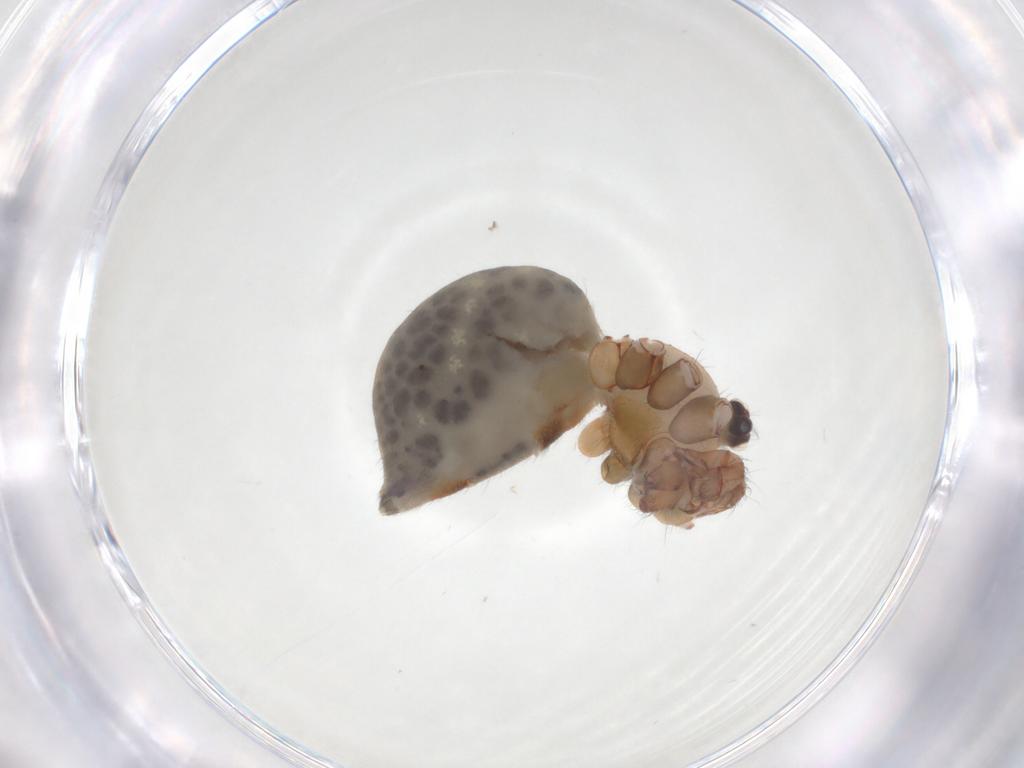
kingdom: Animalia
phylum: Arthropoda
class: Arachnida
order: Araneae
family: Pholcidae
